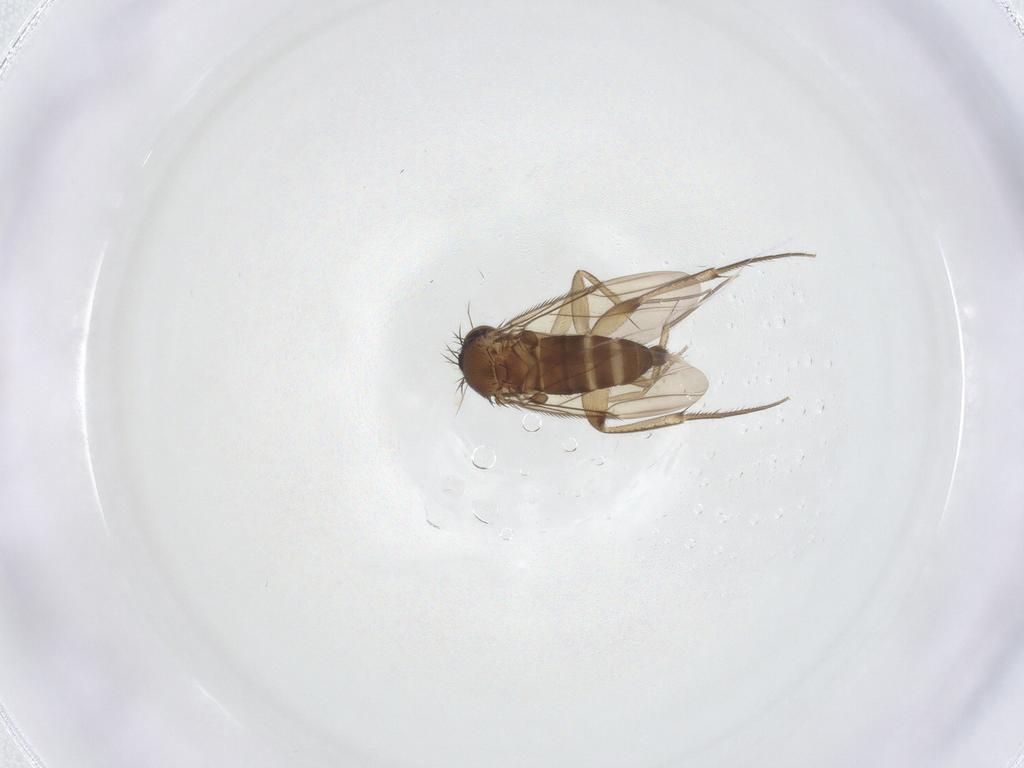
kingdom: Animalia
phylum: Arthropoda
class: Insecta
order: Diptera
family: Phoridae
